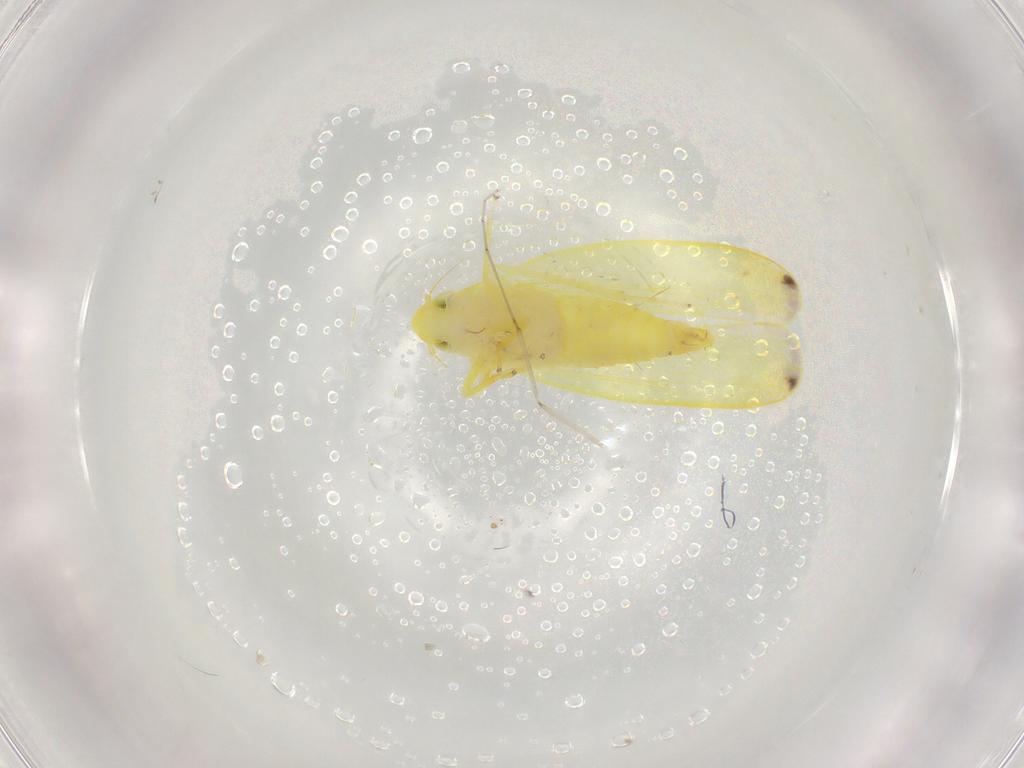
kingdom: Animalia
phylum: Arthropoda
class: Insecta
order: Hemiptera
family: Cicadellidae
